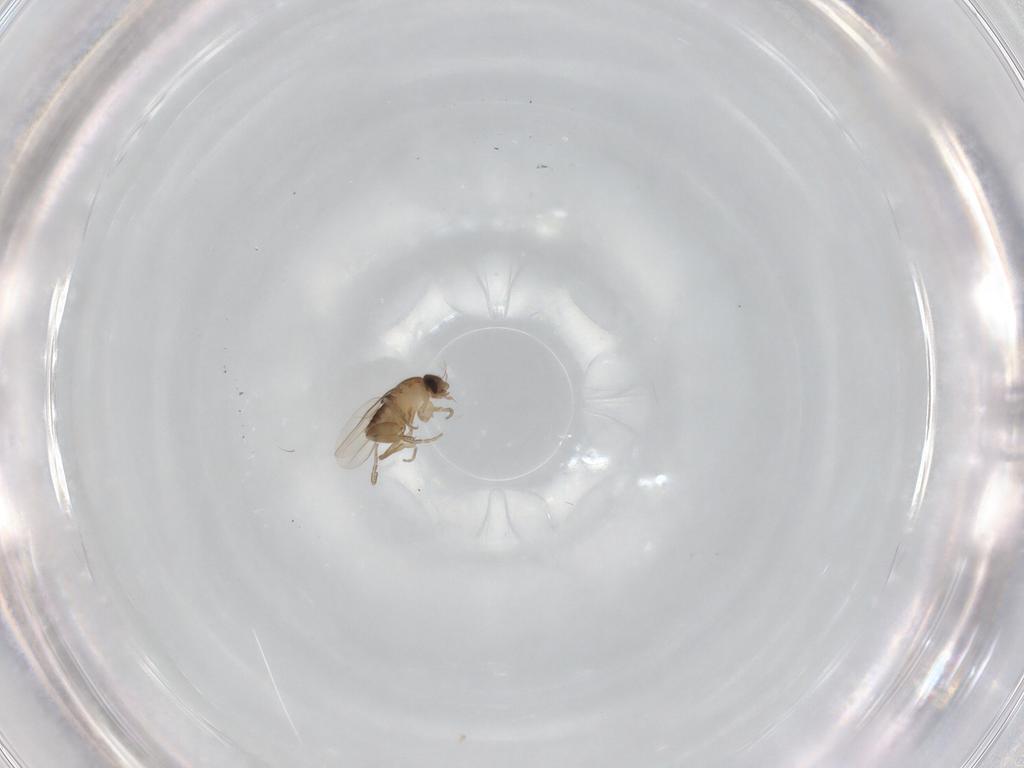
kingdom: Animalia
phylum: Arthropoda
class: Insecta
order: Diptera
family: Phoridae
